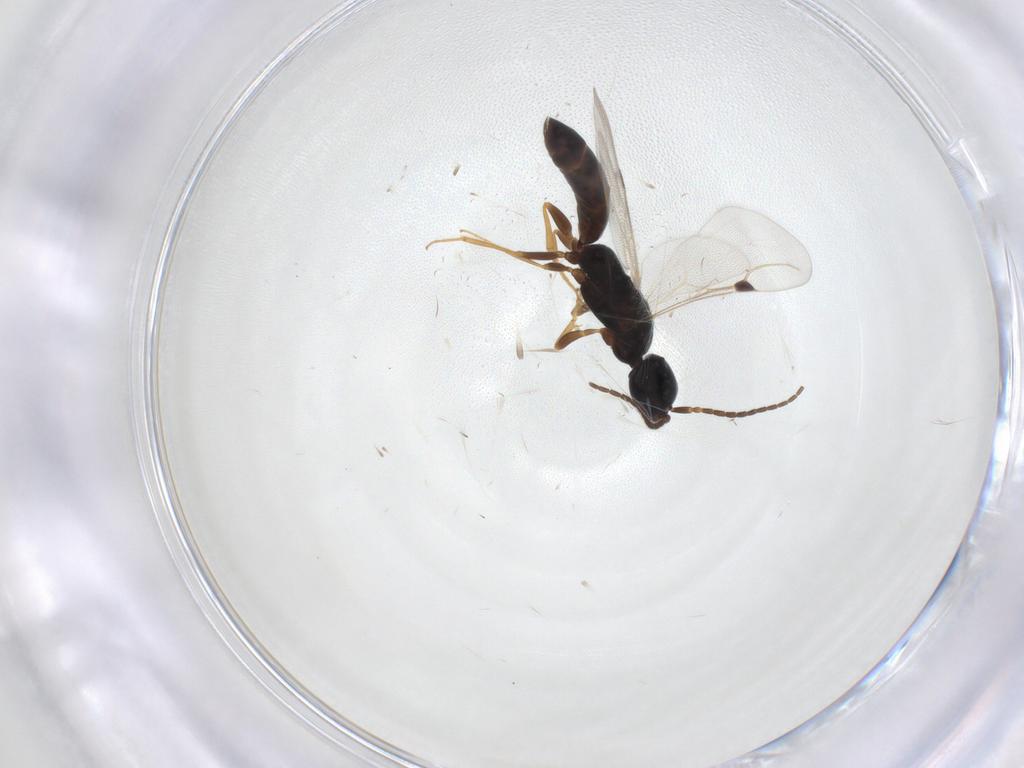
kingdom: Animalia
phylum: Arthropoda
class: Insecta
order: Hymenoptera
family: Bethylidae
